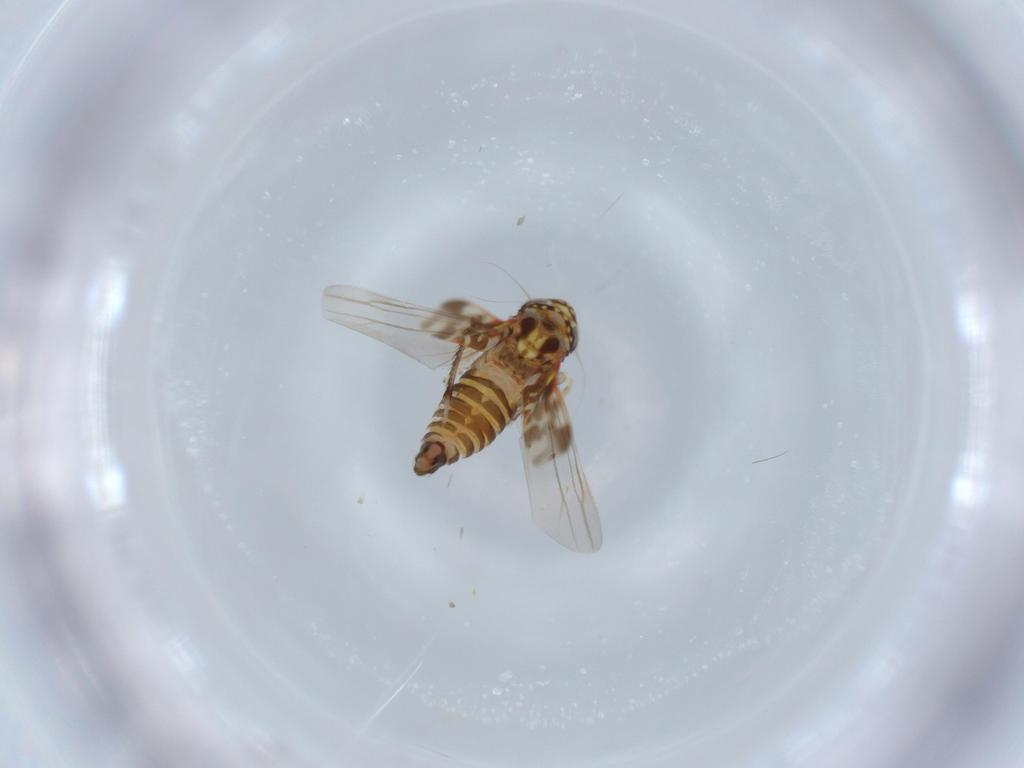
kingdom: Animalia
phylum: Arthropoda
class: Insecta
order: Hemiptera
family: Cicadellidae
